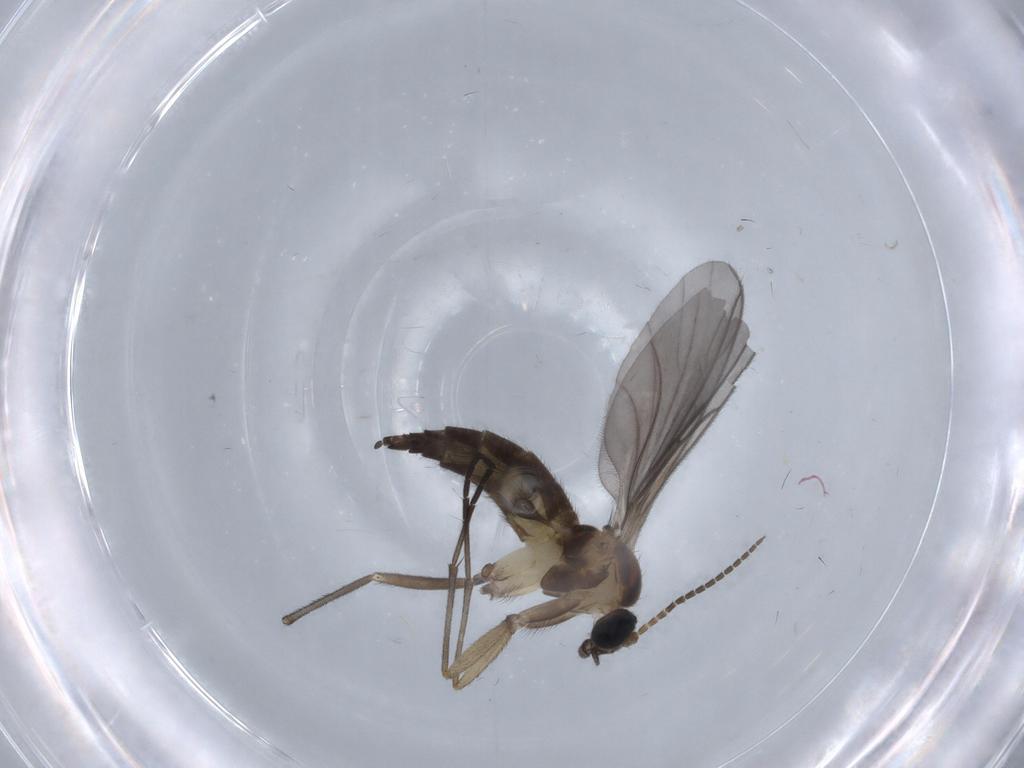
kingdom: Animalia
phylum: Arthropoda
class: Insecta
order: Diptera
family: Sciaridae
